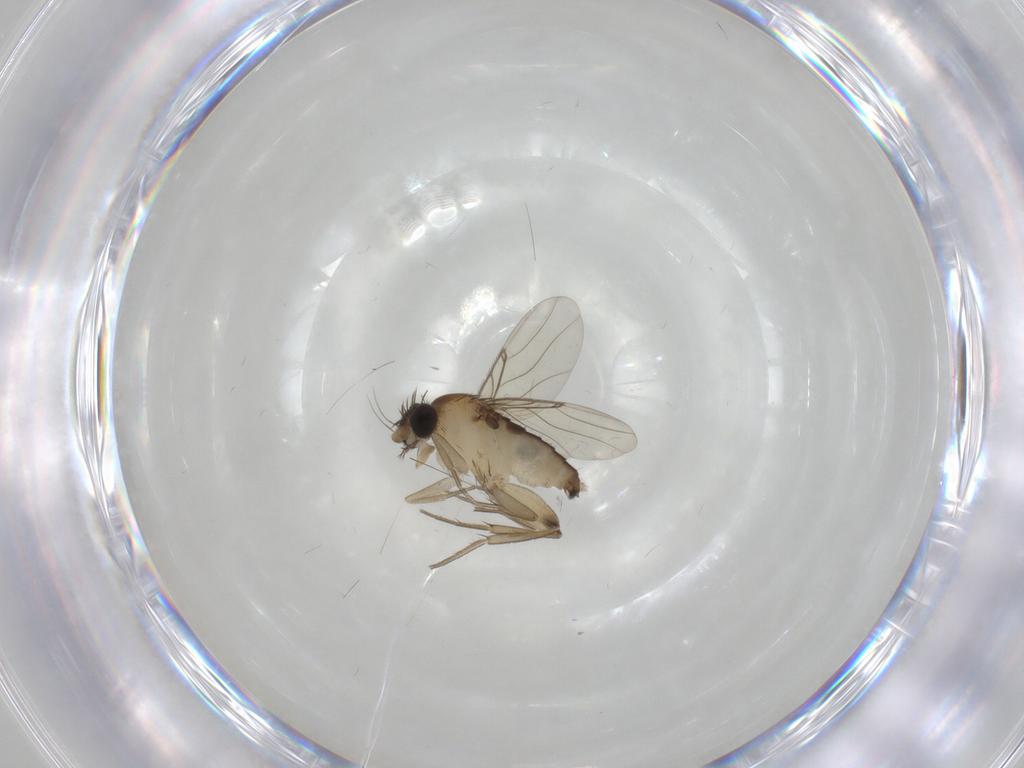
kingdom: Animalia
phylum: Arthropoda
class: Insecta
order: Diptera
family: Phoridae
